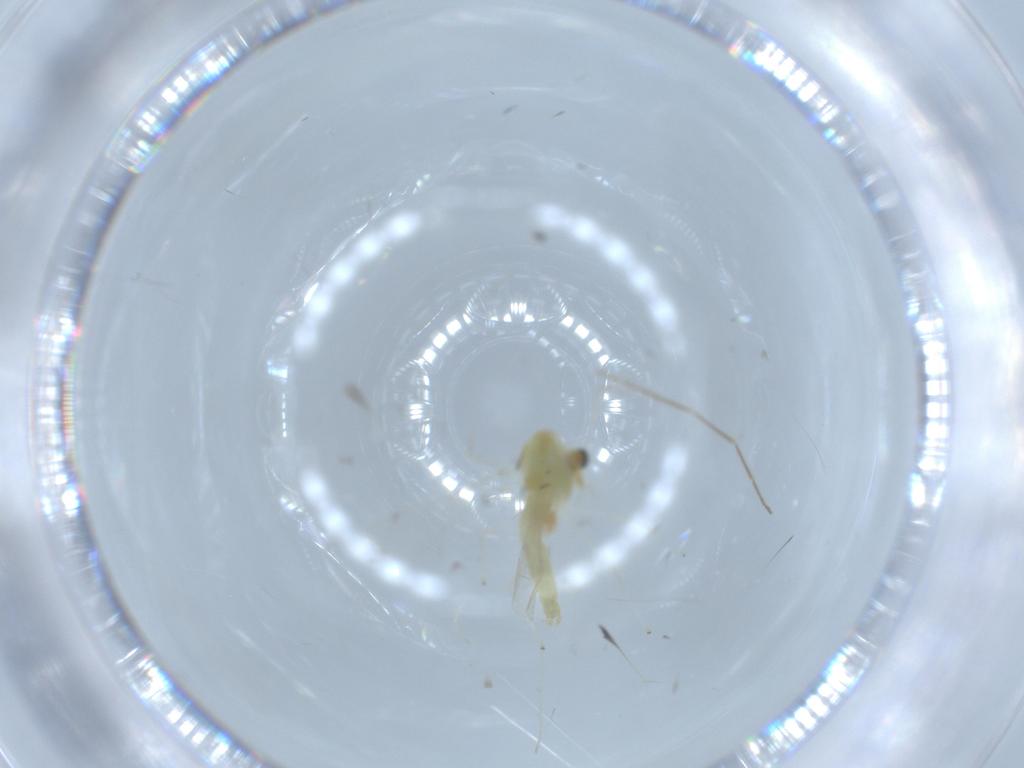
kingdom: Animalia
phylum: Arthropoda
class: Insecta
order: Diptera
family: Chironomidae
